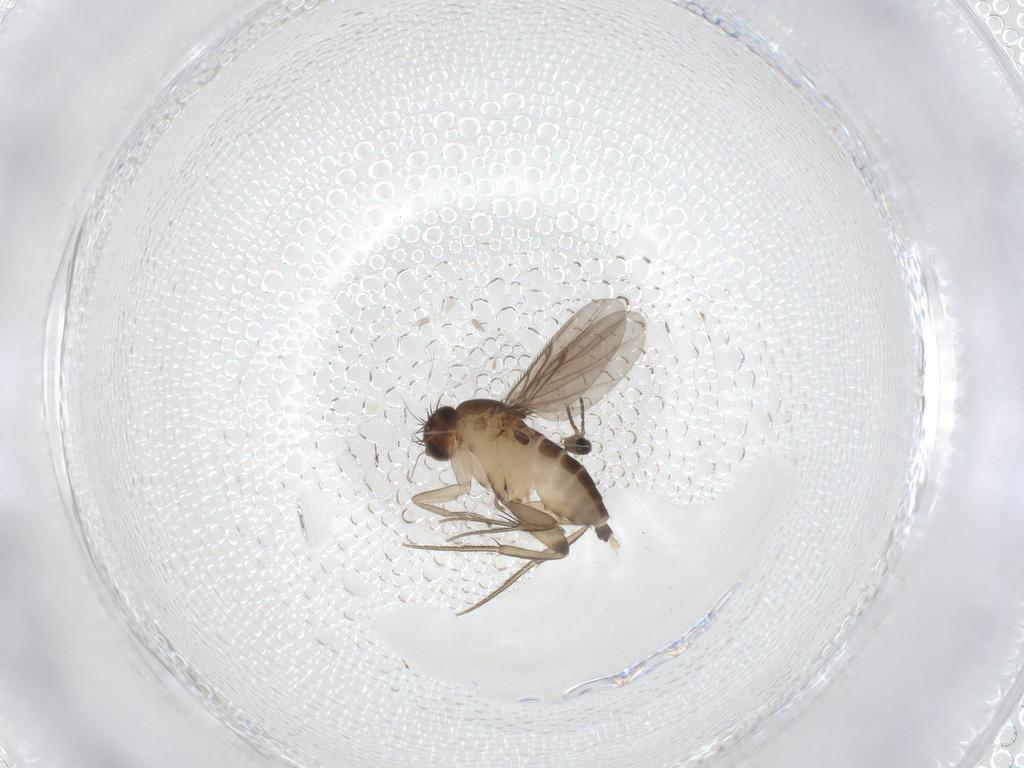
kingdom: Animalia
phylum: Arthropoda
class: Insecta
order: Diptera
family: Cecidomyiidae
